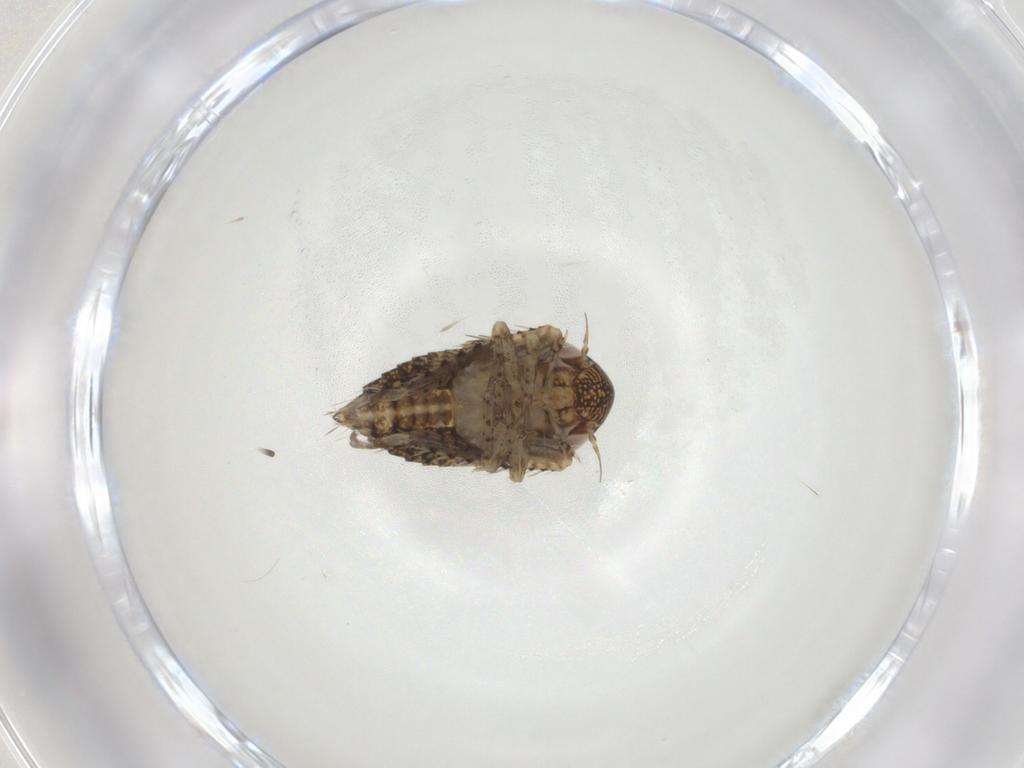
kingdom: Animalia
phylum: Arthropoda
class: Insecta
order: Hemiptera
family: Cicadellidae
